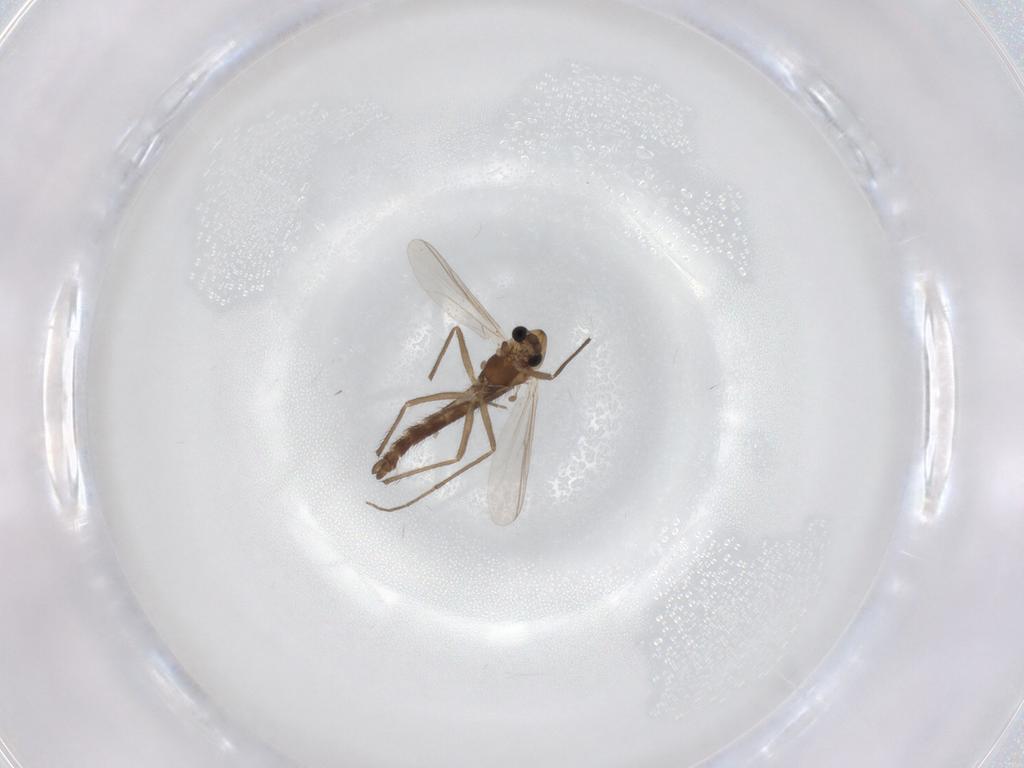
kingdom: Animalia
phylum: Arthropoda
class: Insecta
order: Diptera
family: Chironomidae
